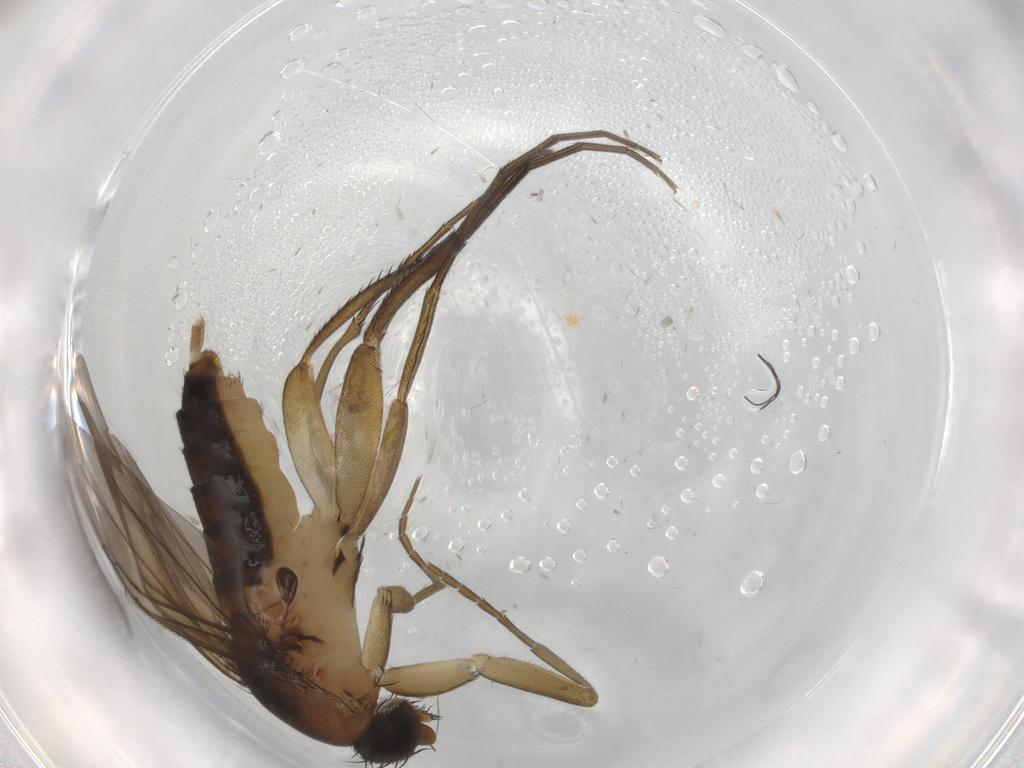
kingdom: Animalia
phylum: Arthropoda
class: Insecta
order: Diptera
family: Phoridae
